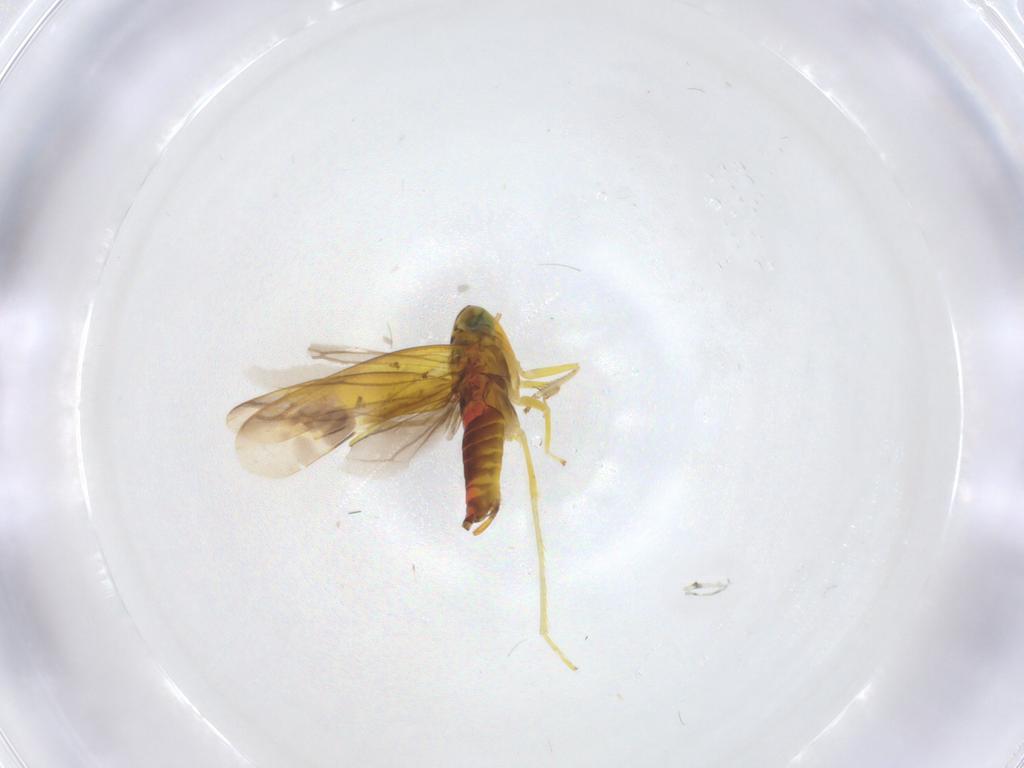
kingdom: Animalia
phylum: Arthropoda
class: Insecta
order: Hemiptera
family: Cicadellidae
